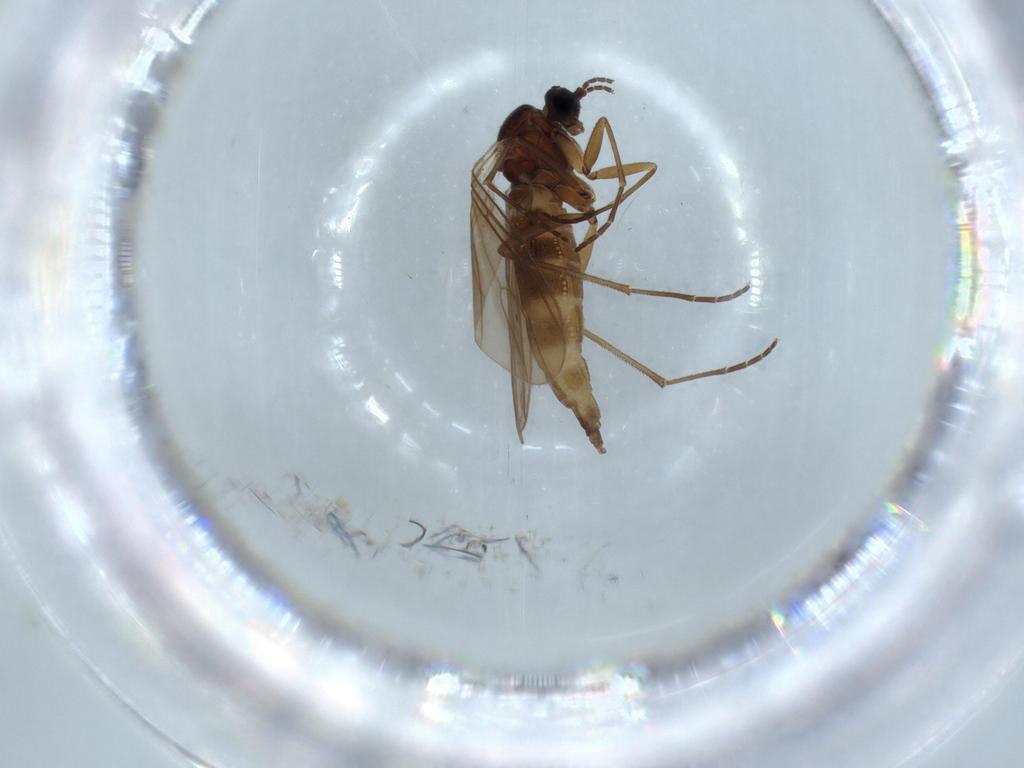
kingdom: Animalia
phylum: Arthropoda
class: Insecta
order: Diptera
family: Sciaridae
